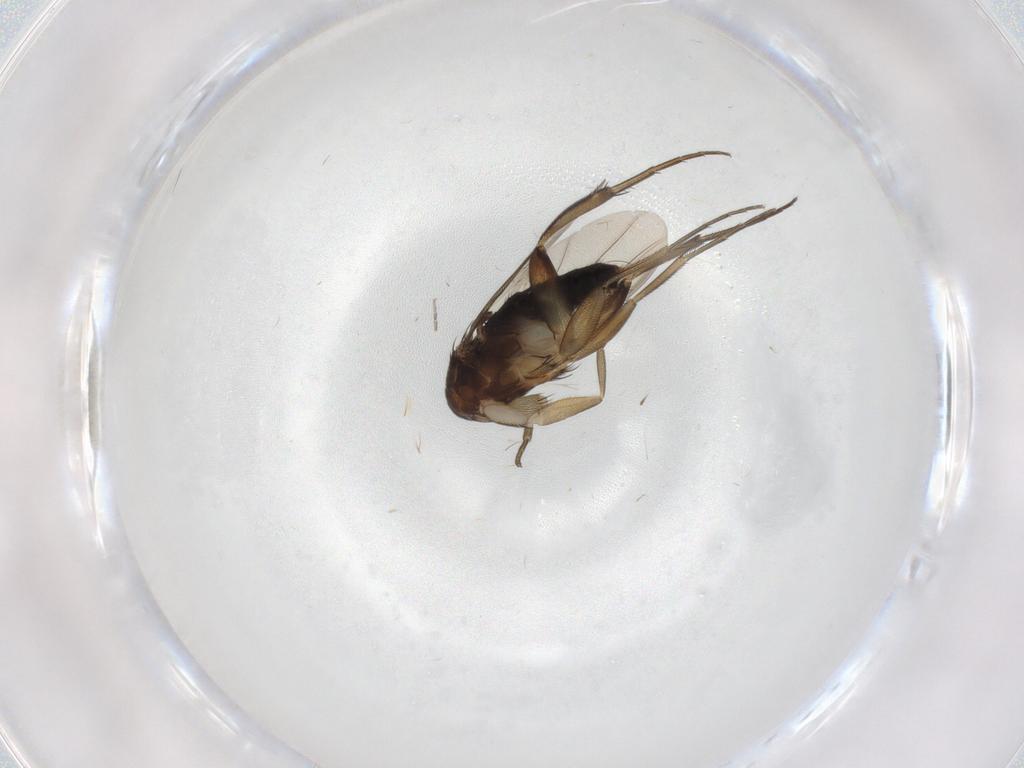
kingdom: Animalia
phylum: Arthropoda
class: Insecta
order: Diptera
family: Phoridae
